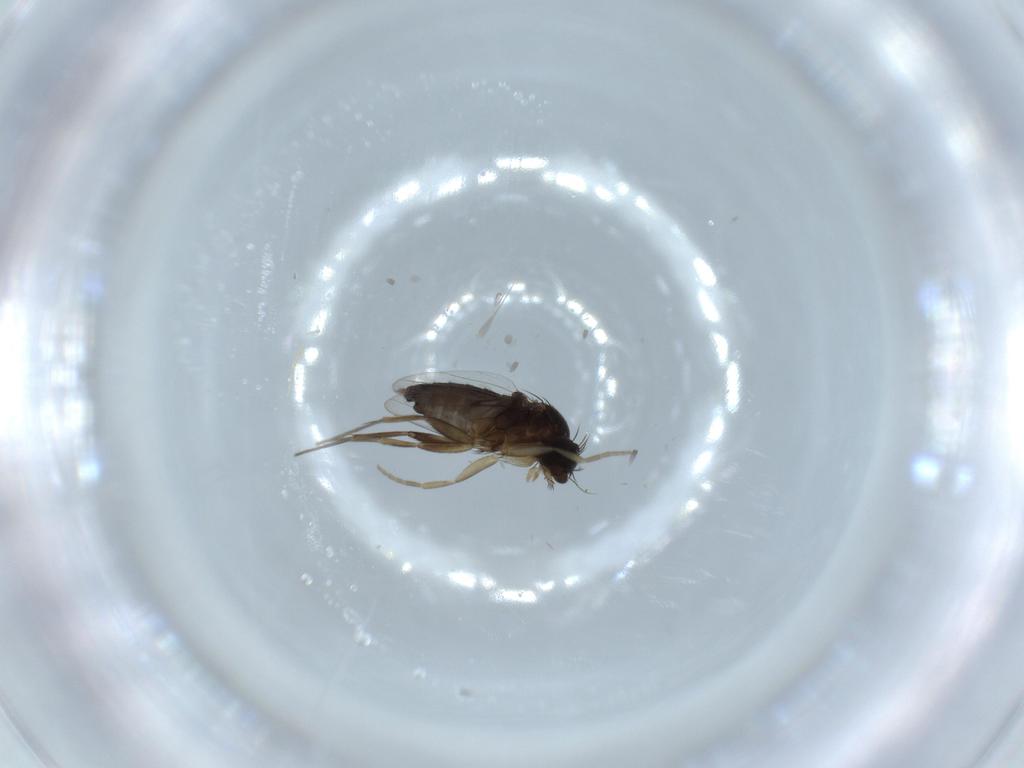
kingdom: Animalia
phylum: Arthropoda
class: Insecta
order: Diptera
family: Phoridae
